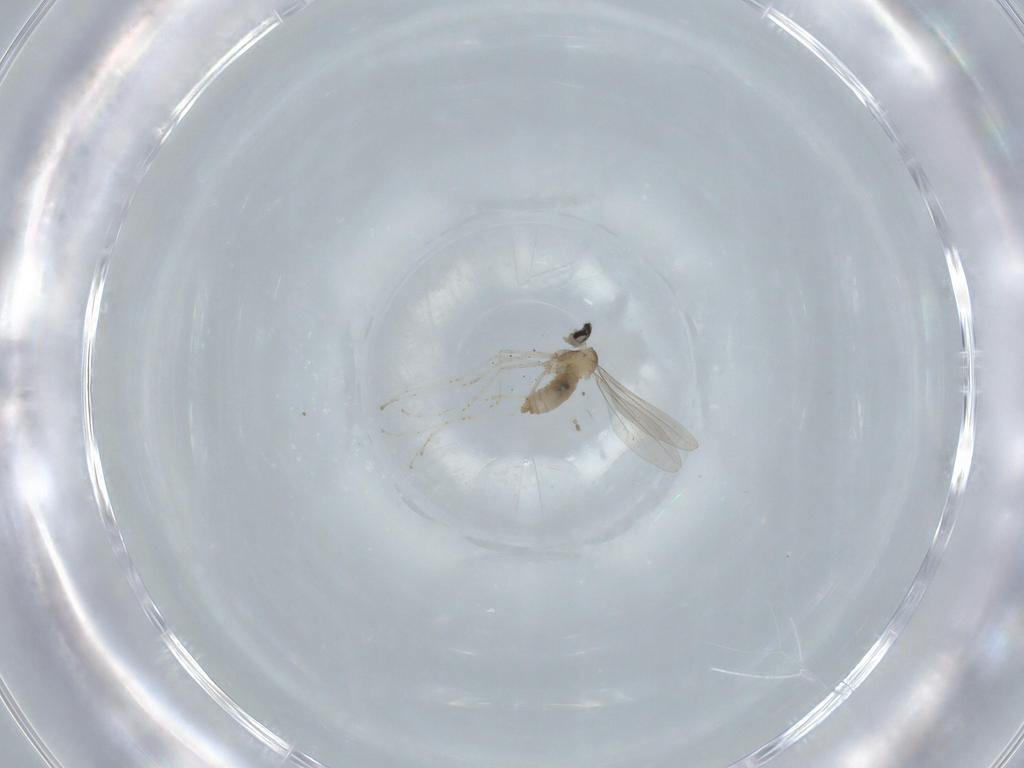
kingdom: Animalia
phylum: Arthropoda
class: Insecta
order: Diptera
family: Cecidomyiidae
